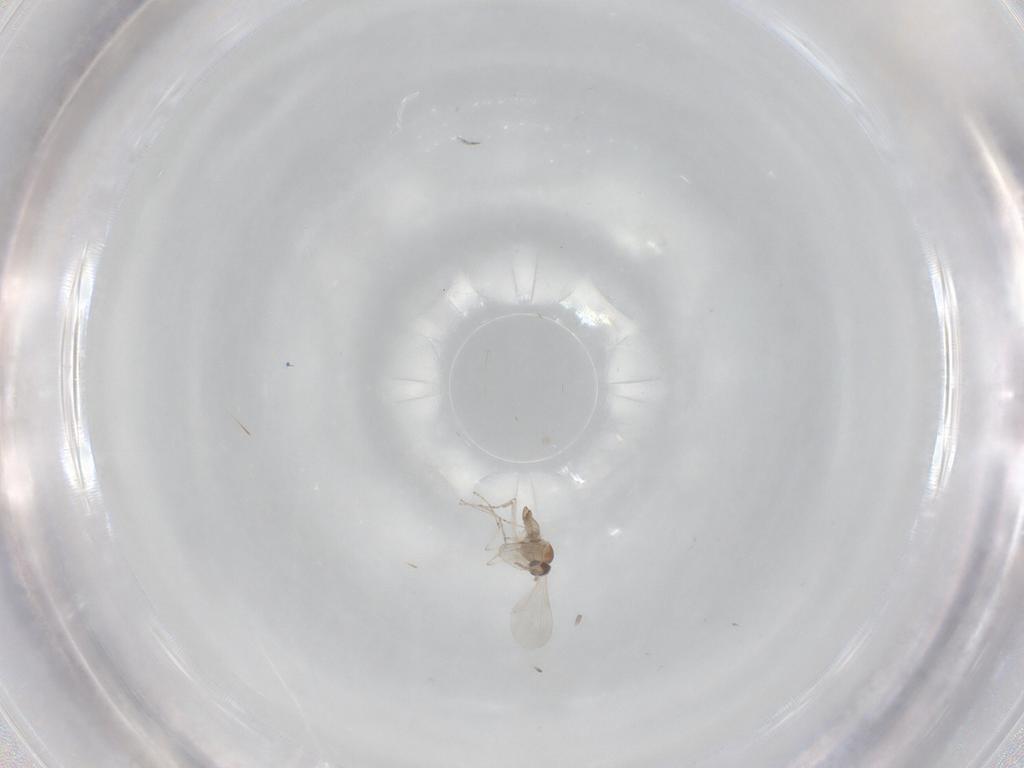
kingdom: Animalia
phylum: Arthropoda
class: Insecta
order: Diptera
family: Cecidomyiidae
